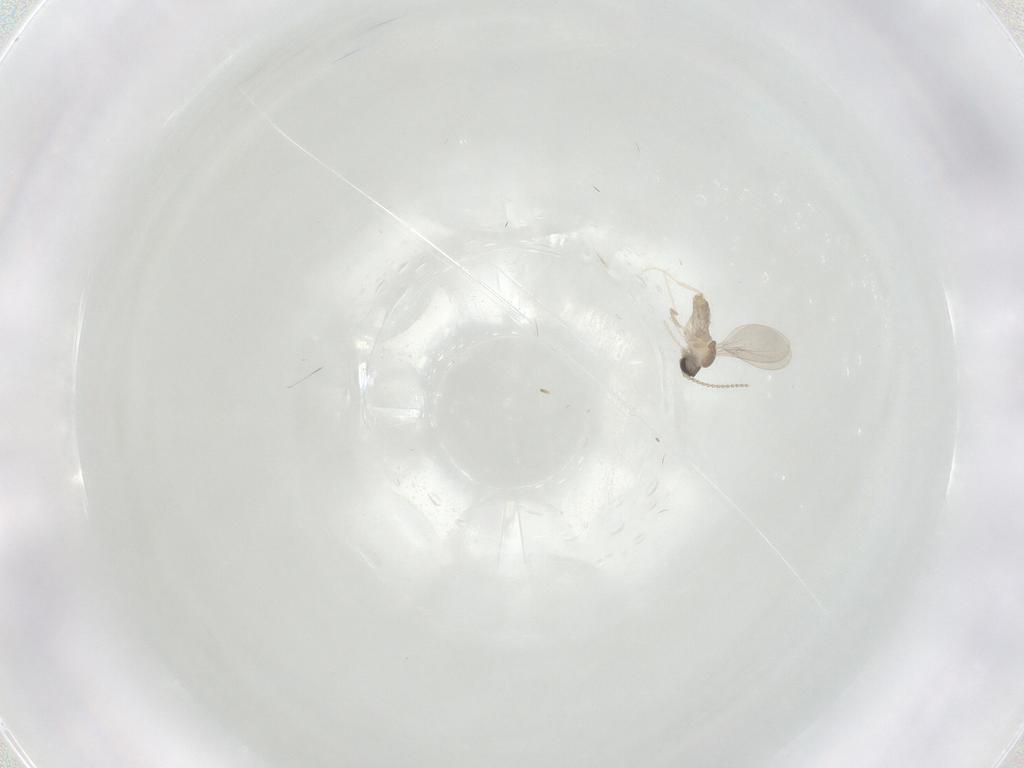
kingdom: Animalia
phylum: Arthropoda
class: Insecta
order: Diptera
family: Cecidomyiidae
